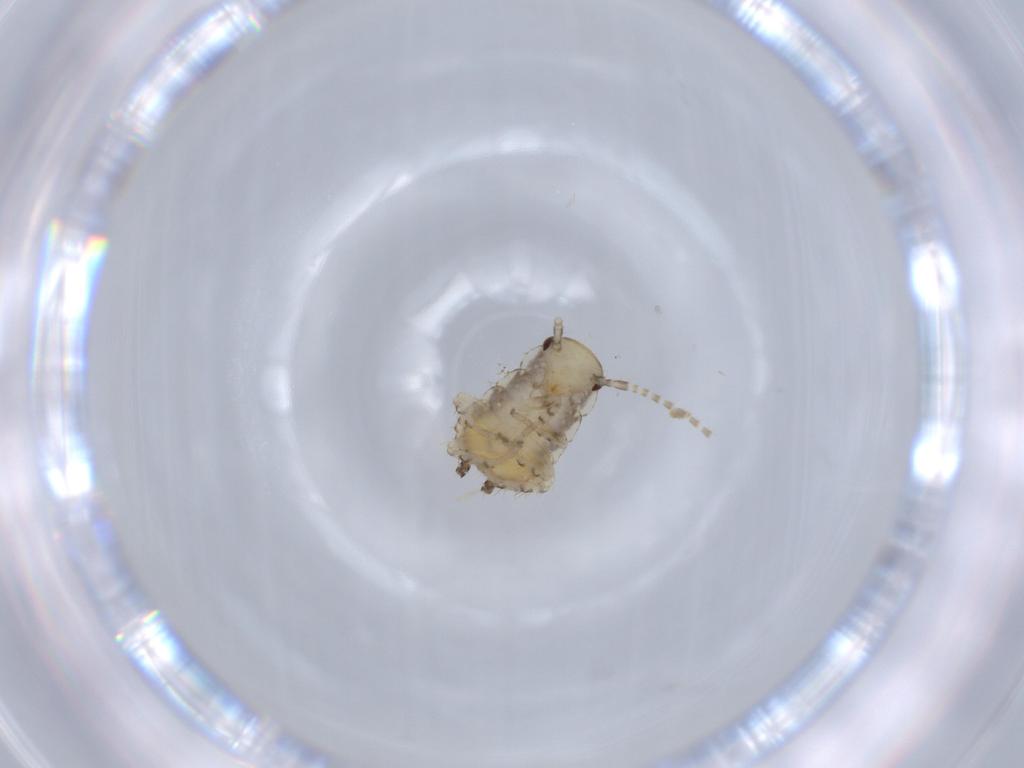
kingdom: Animalia
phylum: Arthropoda
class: Insecta
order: Blattodea
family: Ectobiidae
